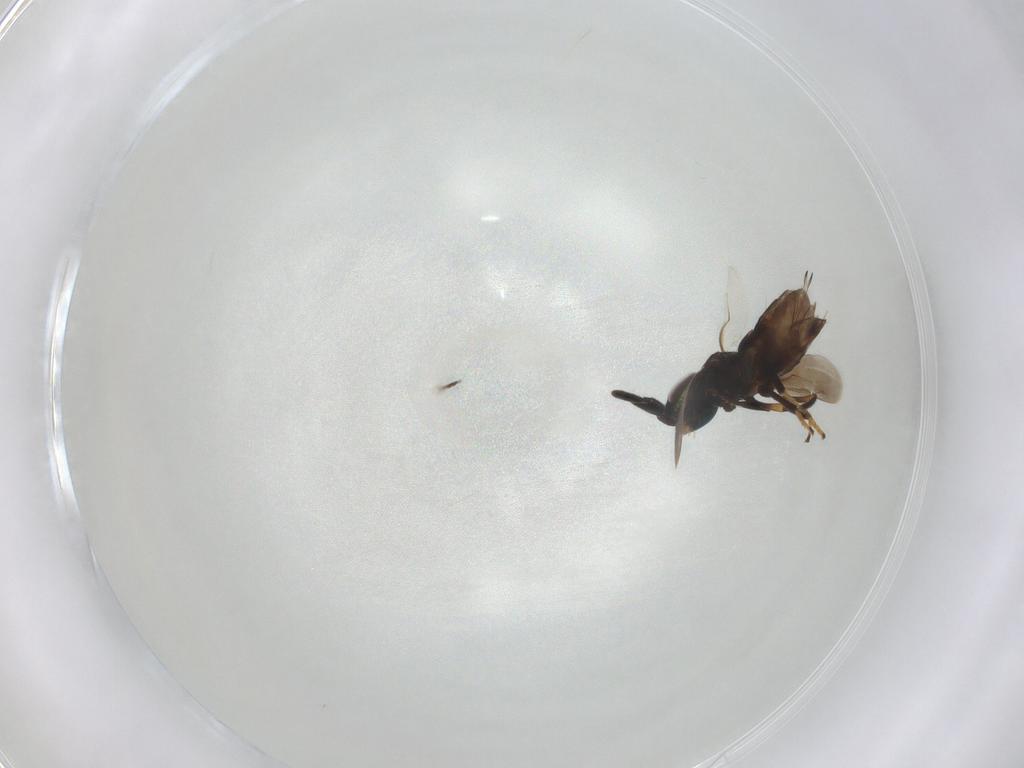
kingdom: Animalia
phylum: Arthropoda
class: Insecta
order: Hymenoptera
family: Encyrtidae
